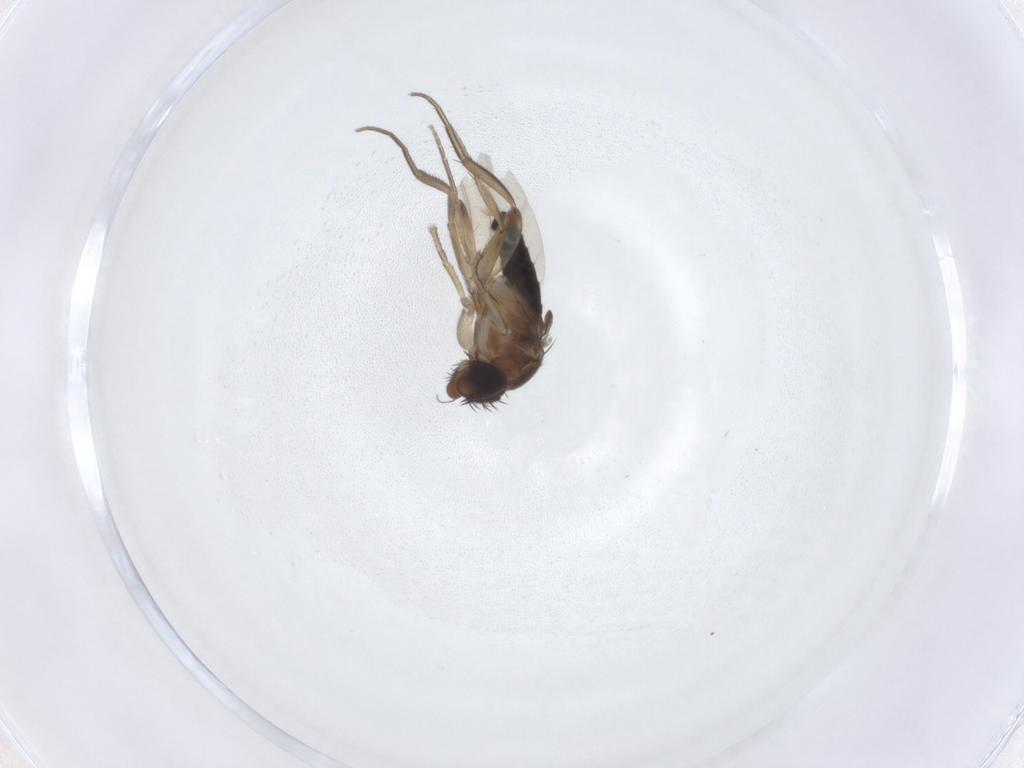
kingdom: Animalia
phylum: Arthropoda
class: Insecta
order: Diptera
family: Phoridae
